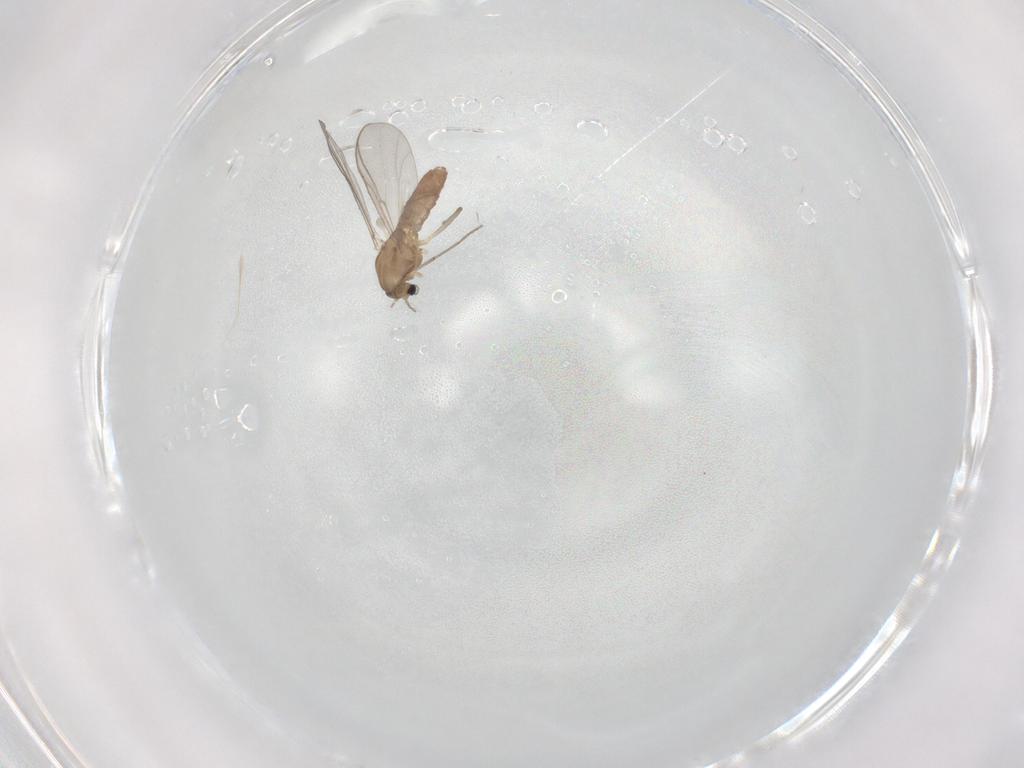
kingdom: Animalia
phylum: Arthropoda
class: Insecta
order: Diptera
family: Chironomidae
